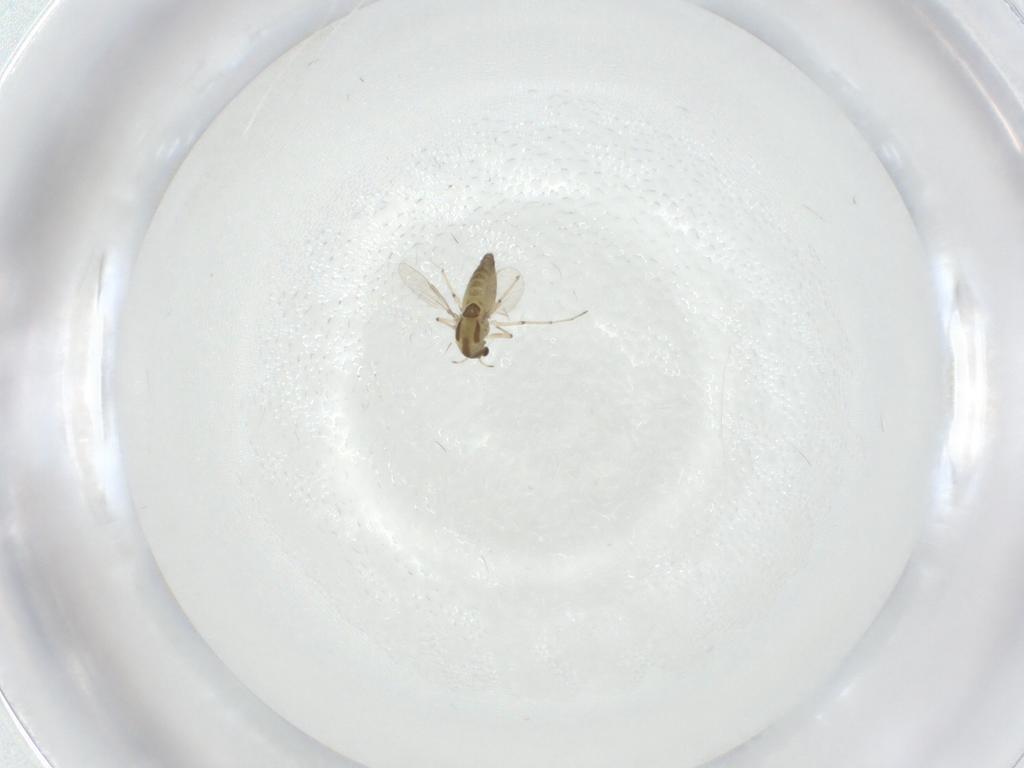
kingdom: Animalia
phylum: Arthropoda
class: Insecta
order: Diptera
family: Chironomidae
